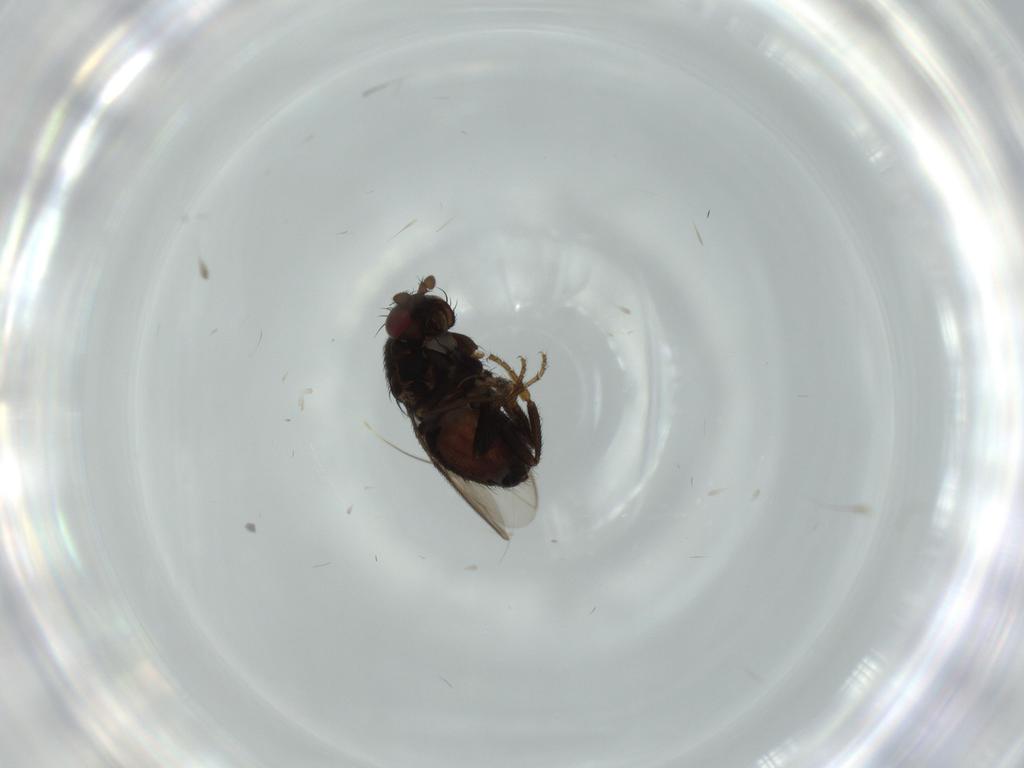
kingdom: Animalia
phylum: Arthropoda
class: Insecta
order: Diptera
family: Sphaeroceridae
